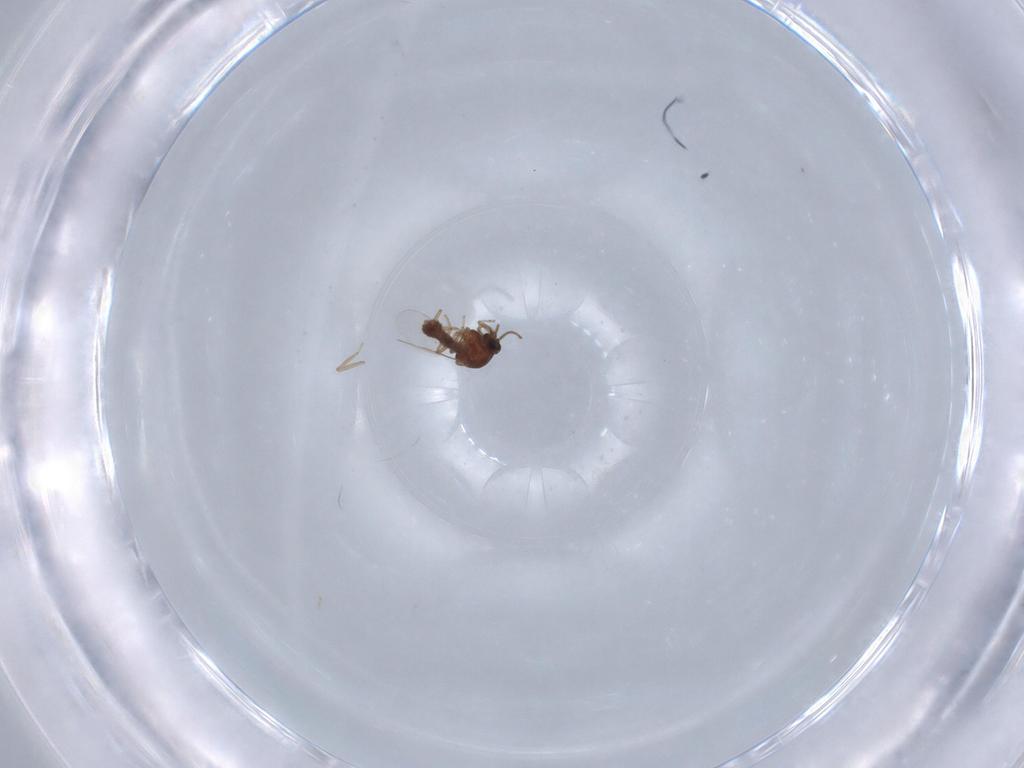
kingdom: Animalia
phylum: Arthropoda
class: Insecta
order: Diptera
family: Ceratopogonidae
